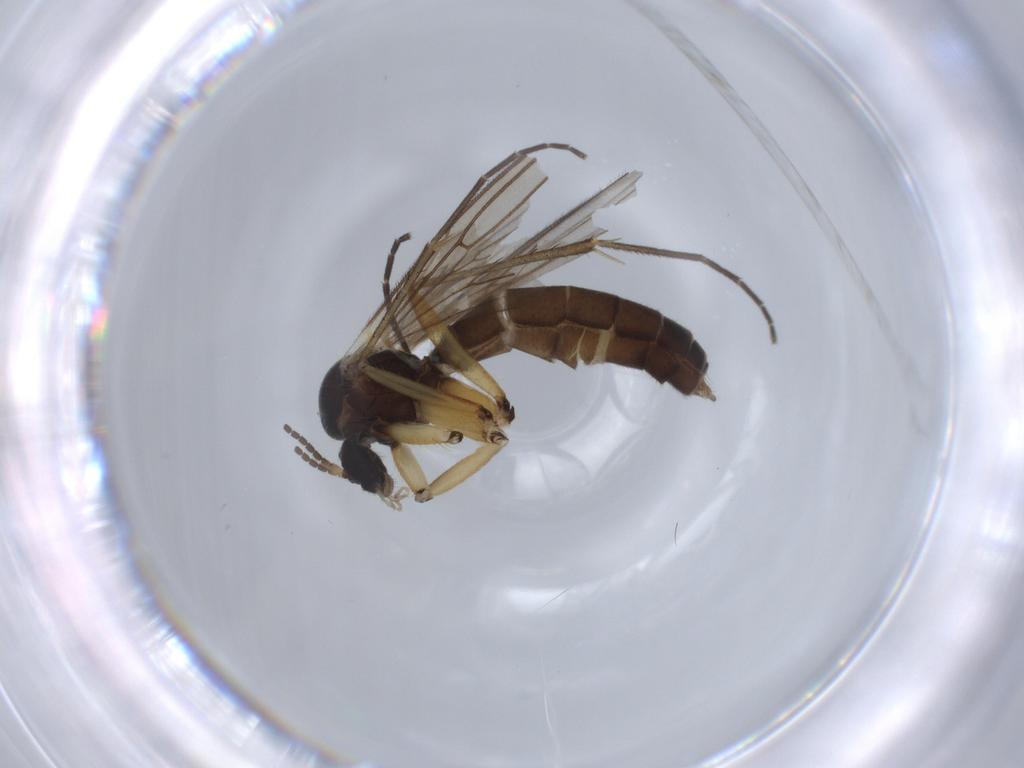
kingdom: Animalia
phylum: Arthropoda
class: Insecta
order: Diptera
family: Mycetophilidae
